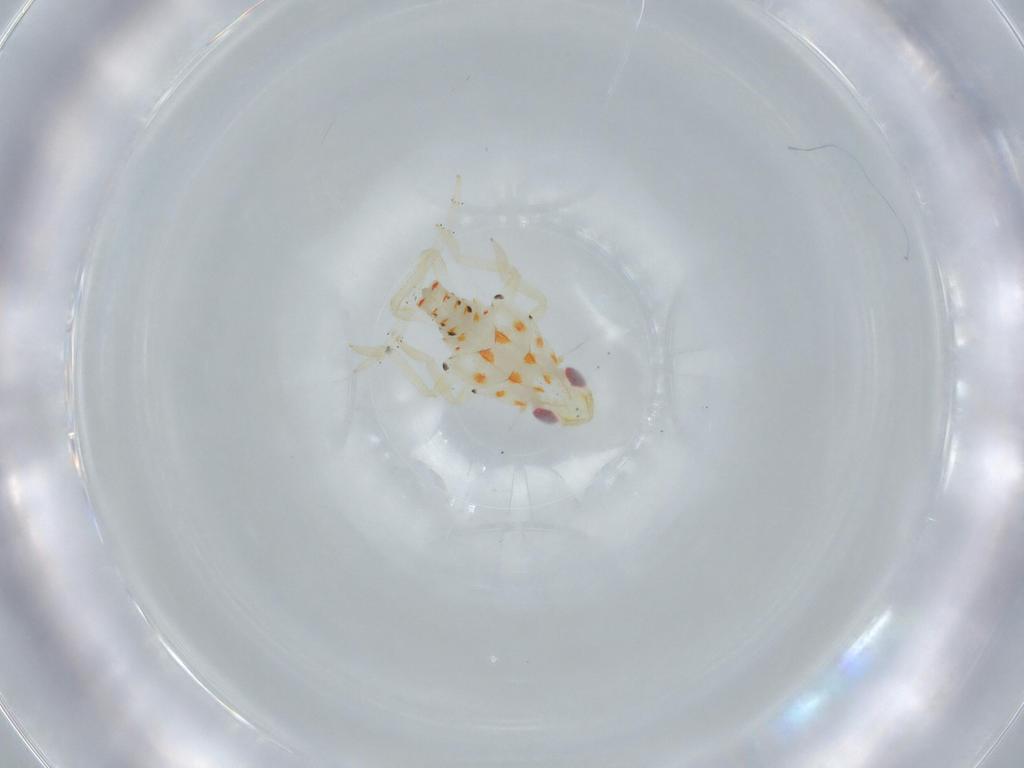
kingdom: Animalia
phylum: Arthropoda
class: Insecta
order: Hemiptera
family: Tropiduchidae
